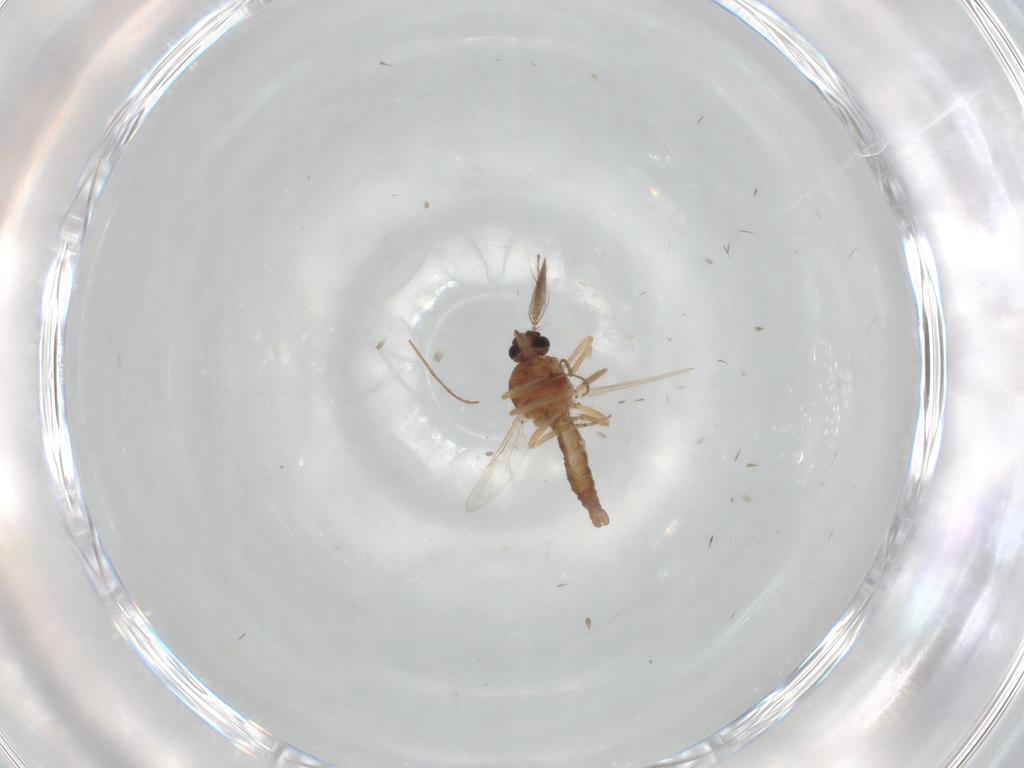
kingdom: Animalia
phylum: Arthropoda
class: Insecta
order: Diptera
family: Ceratopogonidae
